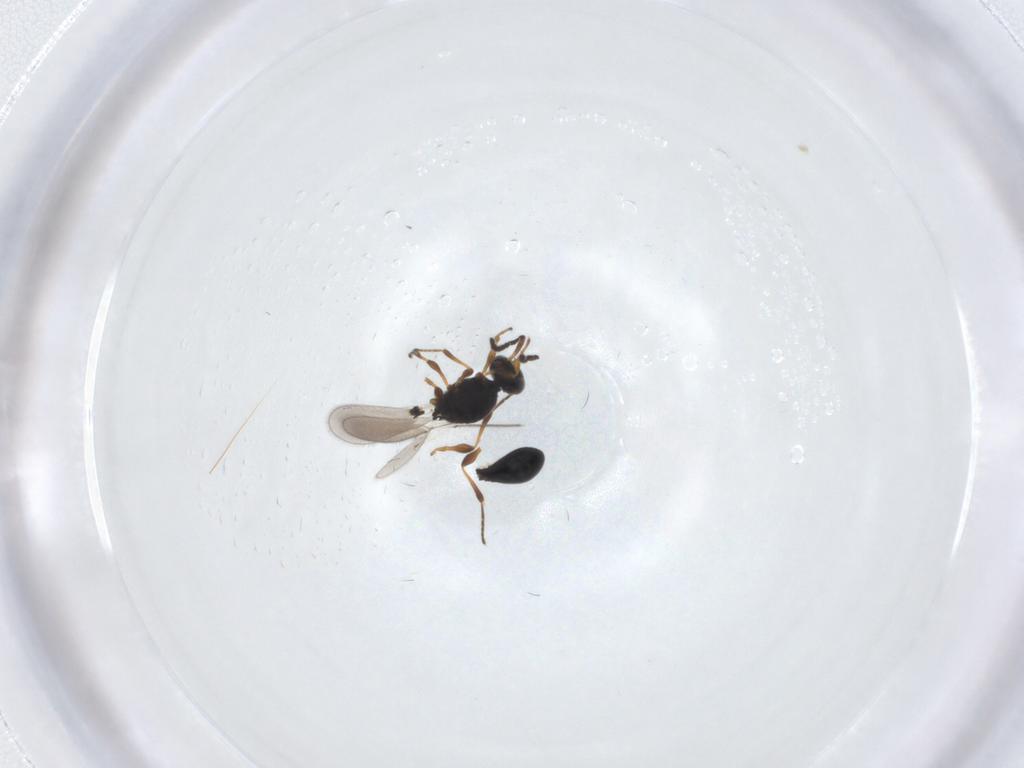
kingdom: Animalia
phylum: Arthropoda
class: Insecta
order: Hymenoptera
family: Platygastridae
